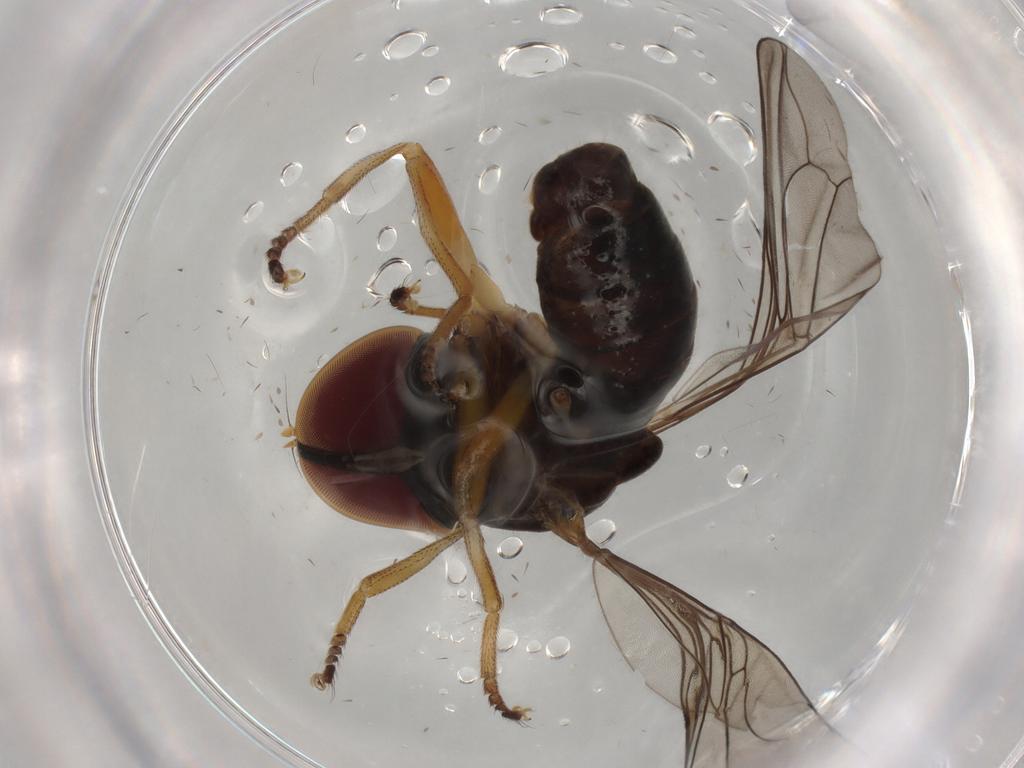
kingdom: Animalia
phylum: Arthropoda
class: Insecta
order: Diptera
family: Pipunculidae
